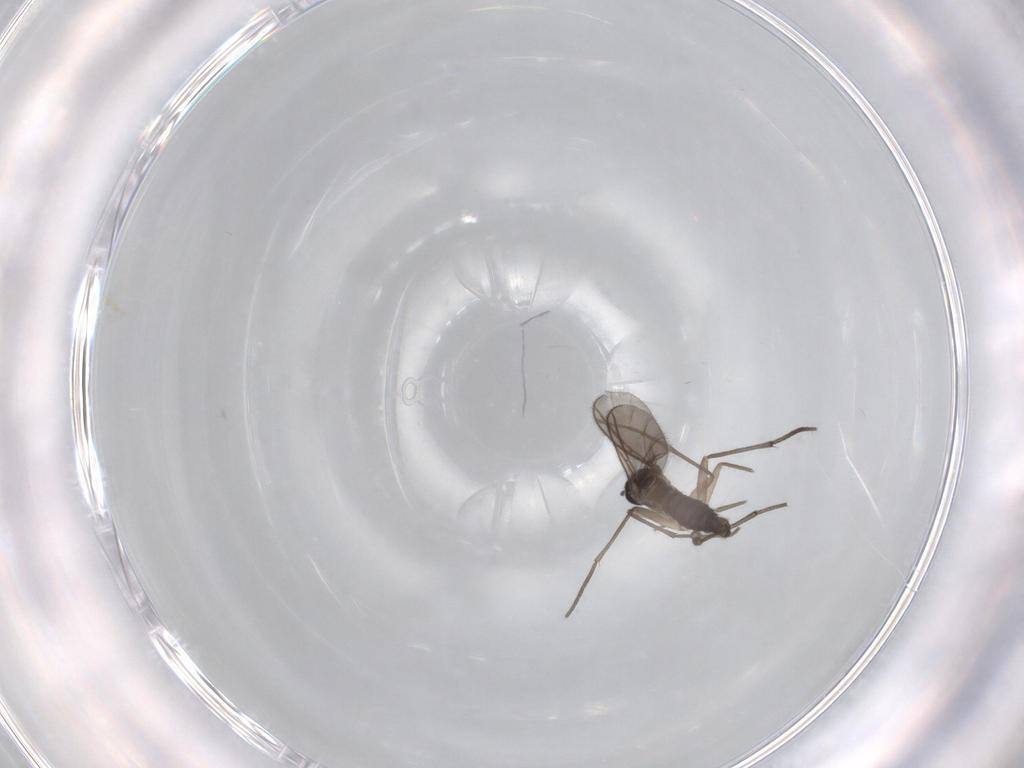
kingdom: Animalia
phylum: Arthropoda
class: Insecta
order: Diptera
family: Sciaridae
